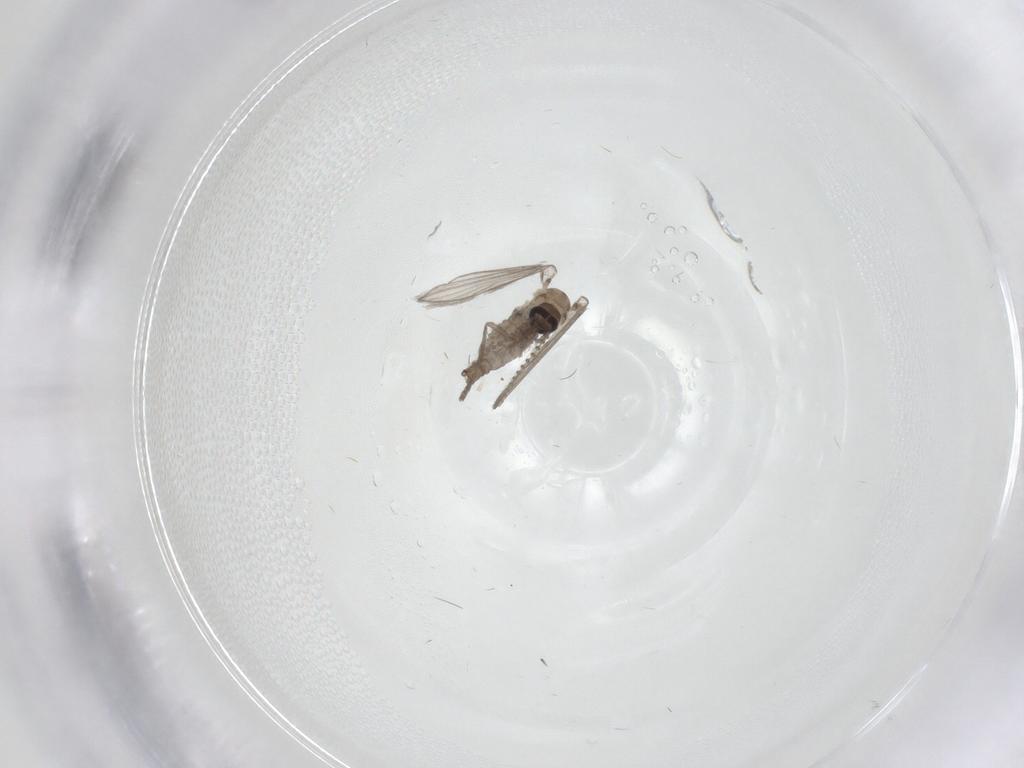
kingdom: Animalia
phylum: Arthropoda
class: Insecta
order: Diptera
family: Psychodidae
